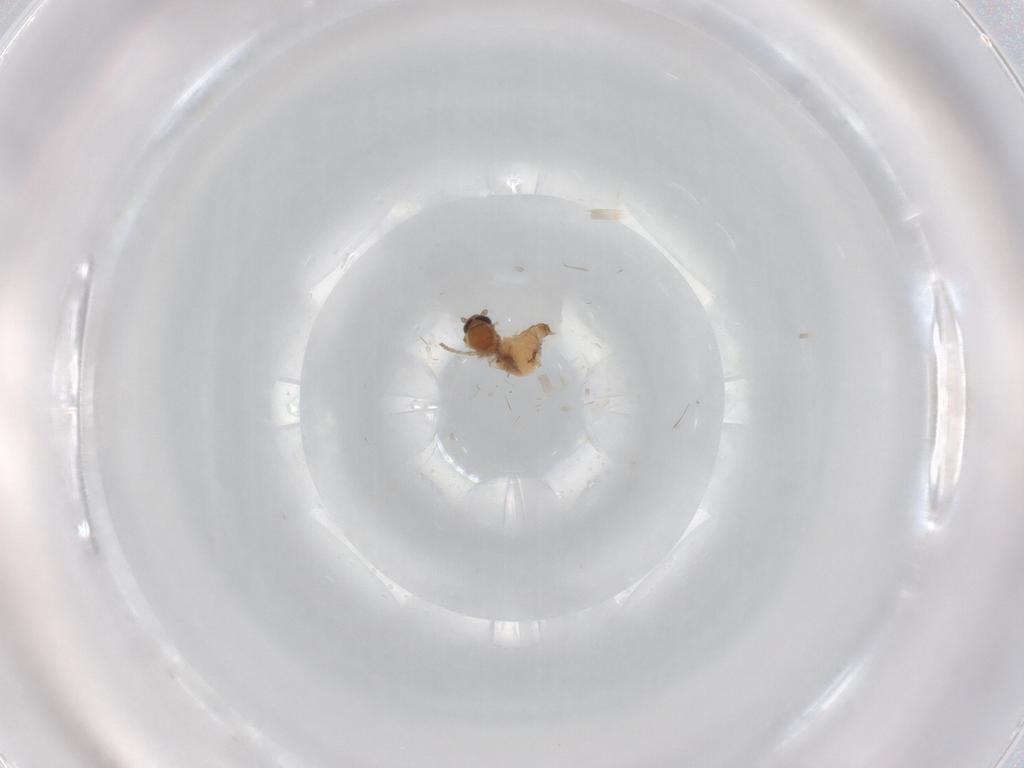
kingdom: Animalia
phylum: Arthropoda
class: Insecta
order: Diptera
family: Psychodidae
